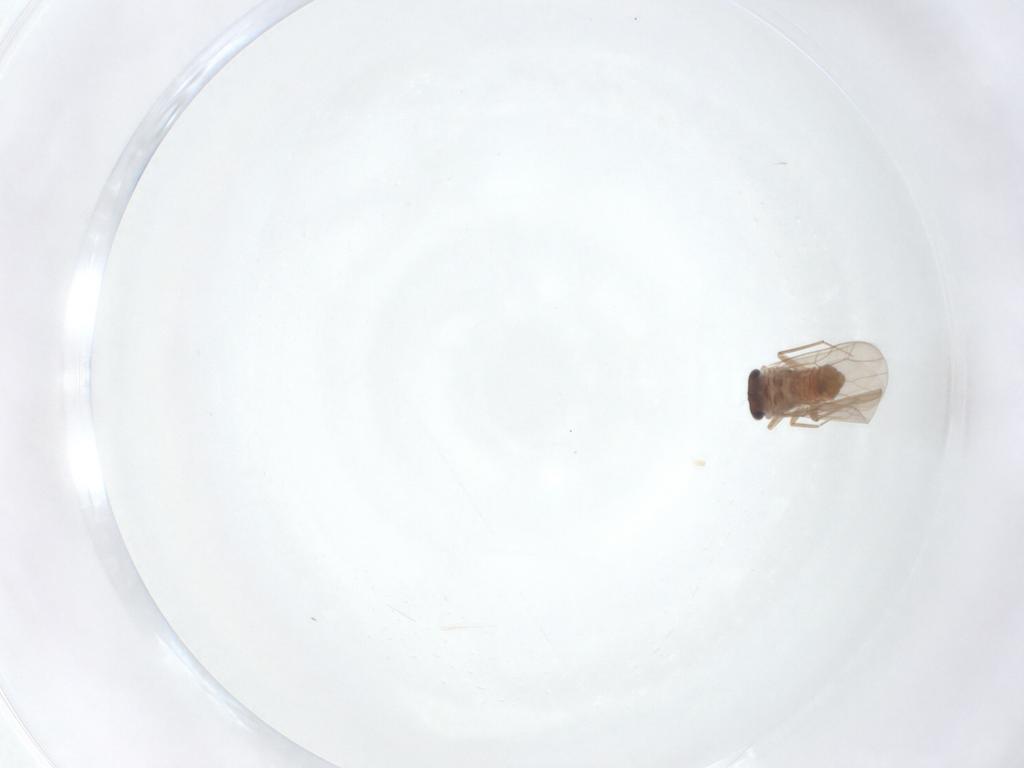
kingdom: Animalia
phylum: Arthropoda
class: Insecta
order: Psocodea
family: Lepidopsocidae
